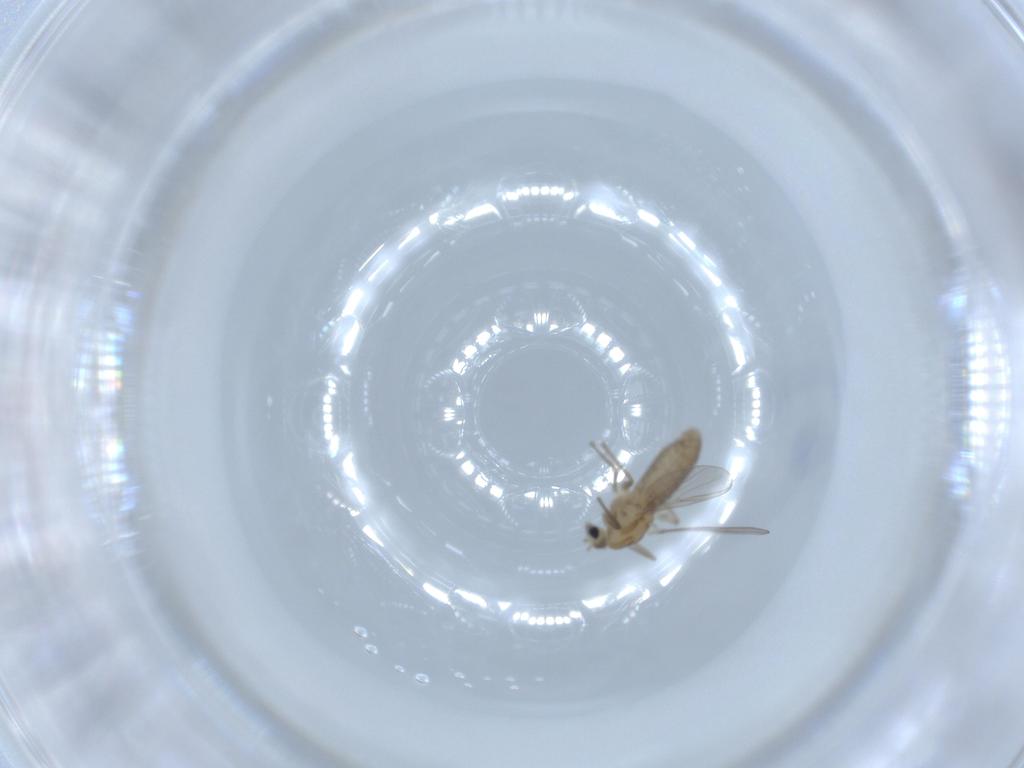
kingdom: Animalia
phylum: Arthropoda
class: Insecta
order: Diptera
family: Chironomidae
